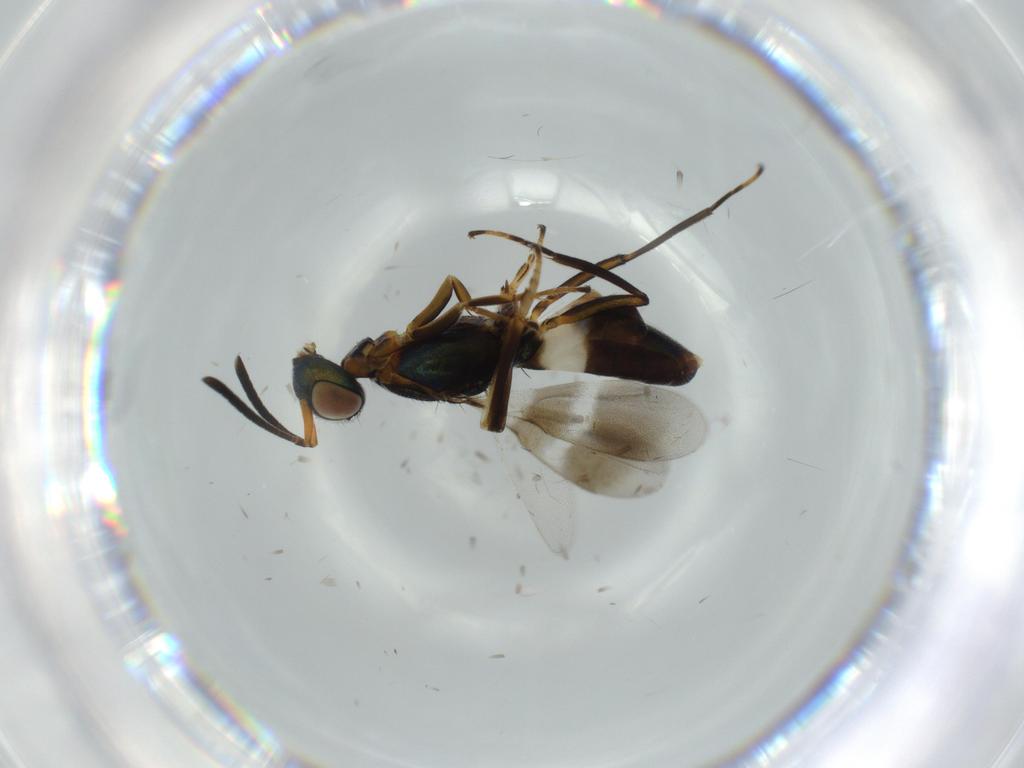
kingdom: Animalia
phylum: Arthropoda
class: Insecta
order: Hymenoptera
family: Eupelmidae
